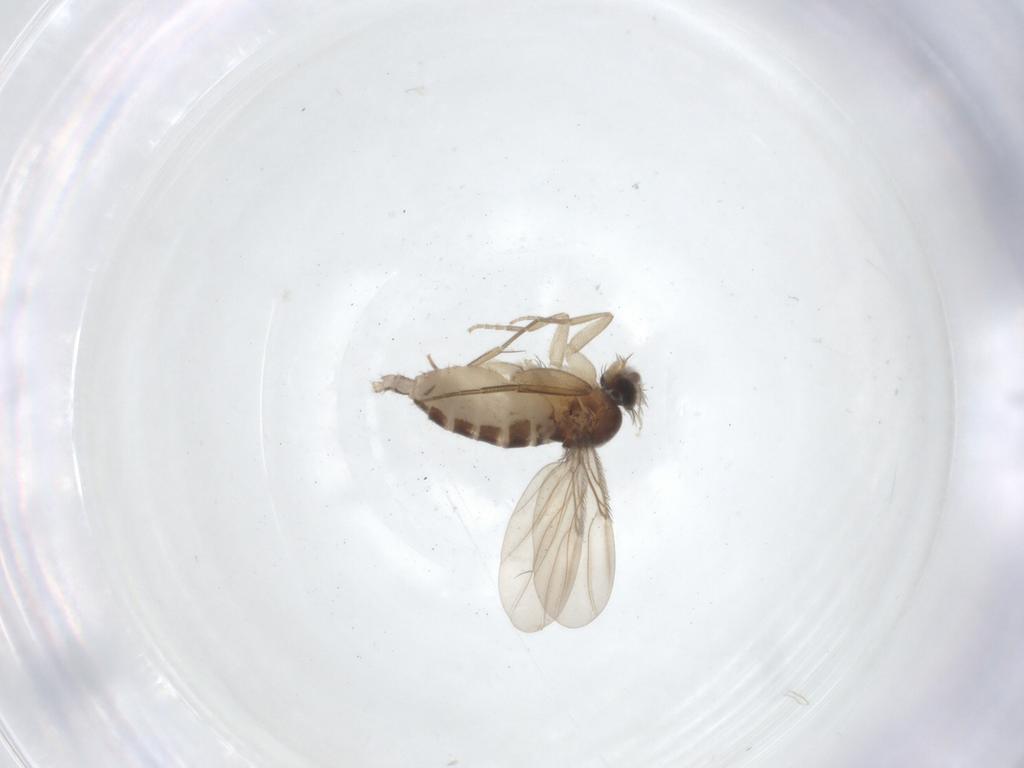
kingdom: Animalia
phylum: Arthropoda
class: Insecta
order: Diptera
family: Phoridae
